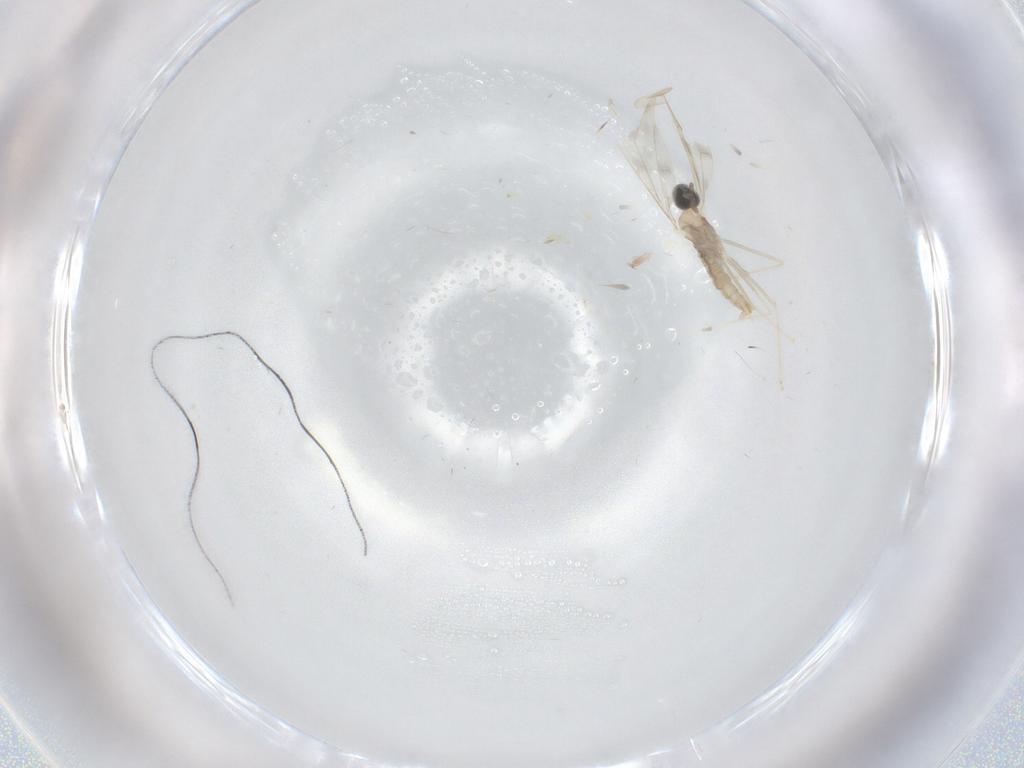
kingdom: Animalia
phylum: Arthropoda
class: Insecta
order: Diptera
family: Cecidomyiidae
